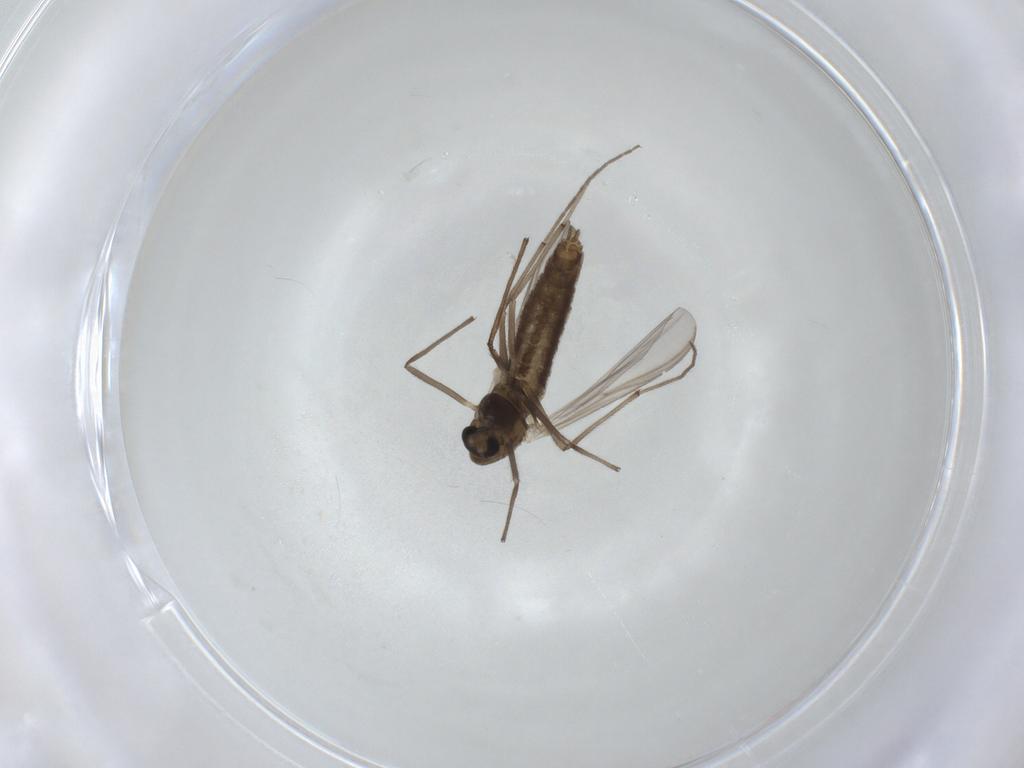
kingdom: Animalia
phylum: Arthropoda
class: Insecta
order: Diptera
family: Chironomidae
